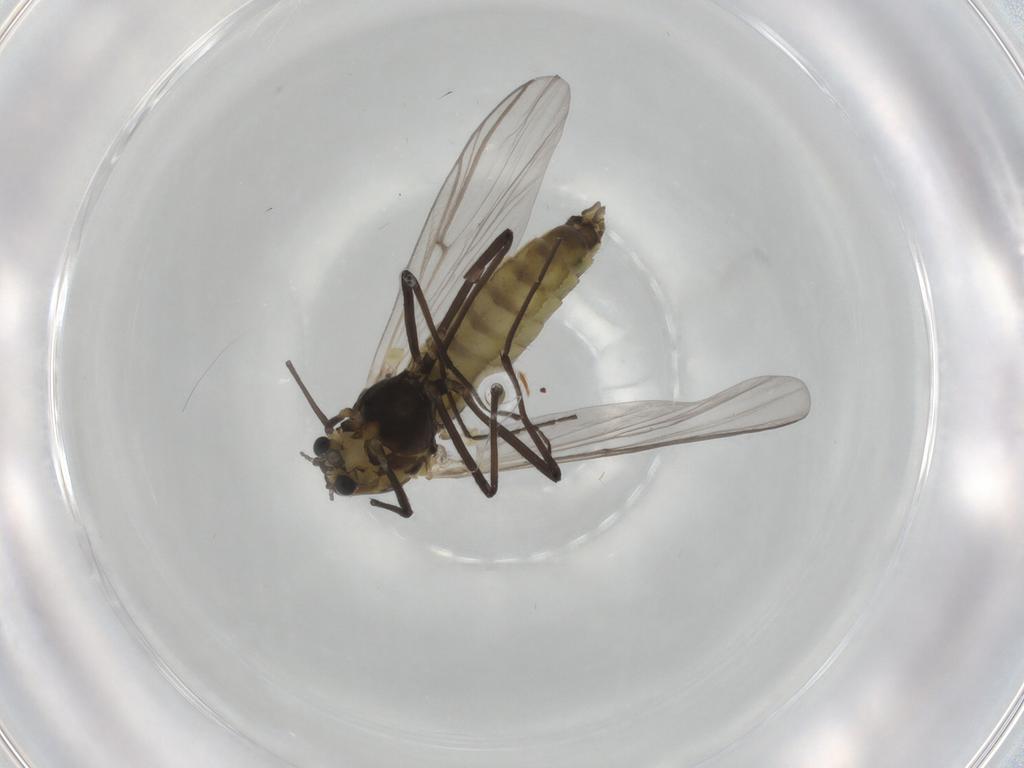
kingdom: Animalia
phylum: Arthropoda
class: Insecta
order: Diptera
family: Chironomidae
